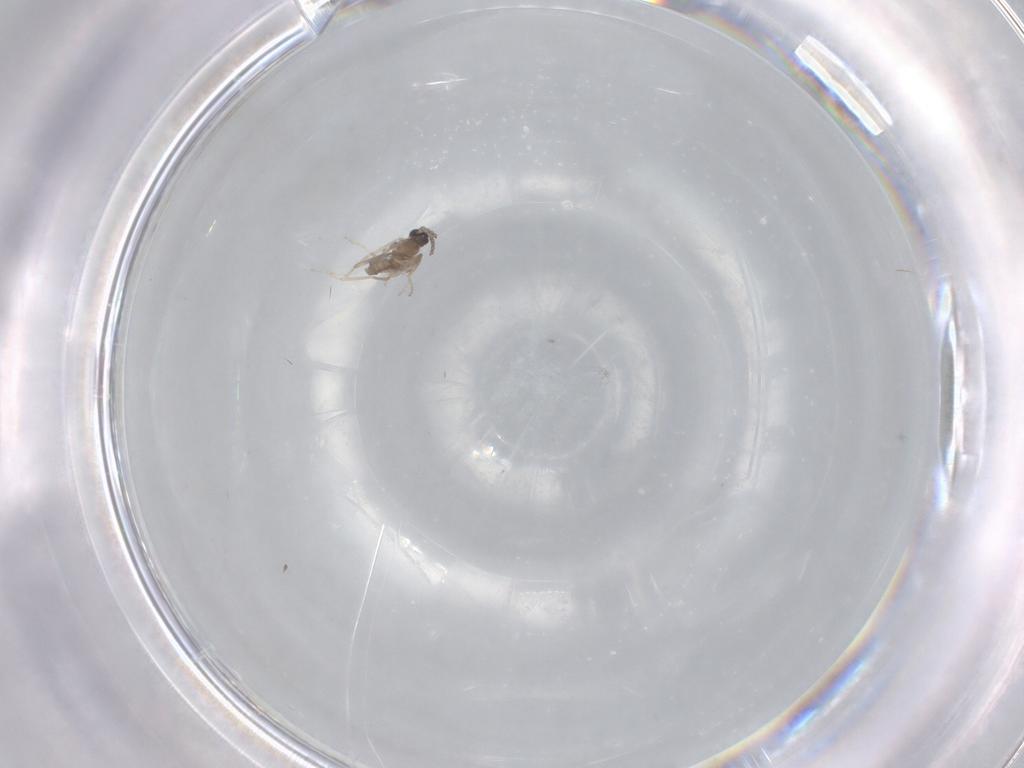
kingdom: Animalia
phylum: Arthropoda
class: Insecta
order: Diptera
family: Cecidomyiidae
